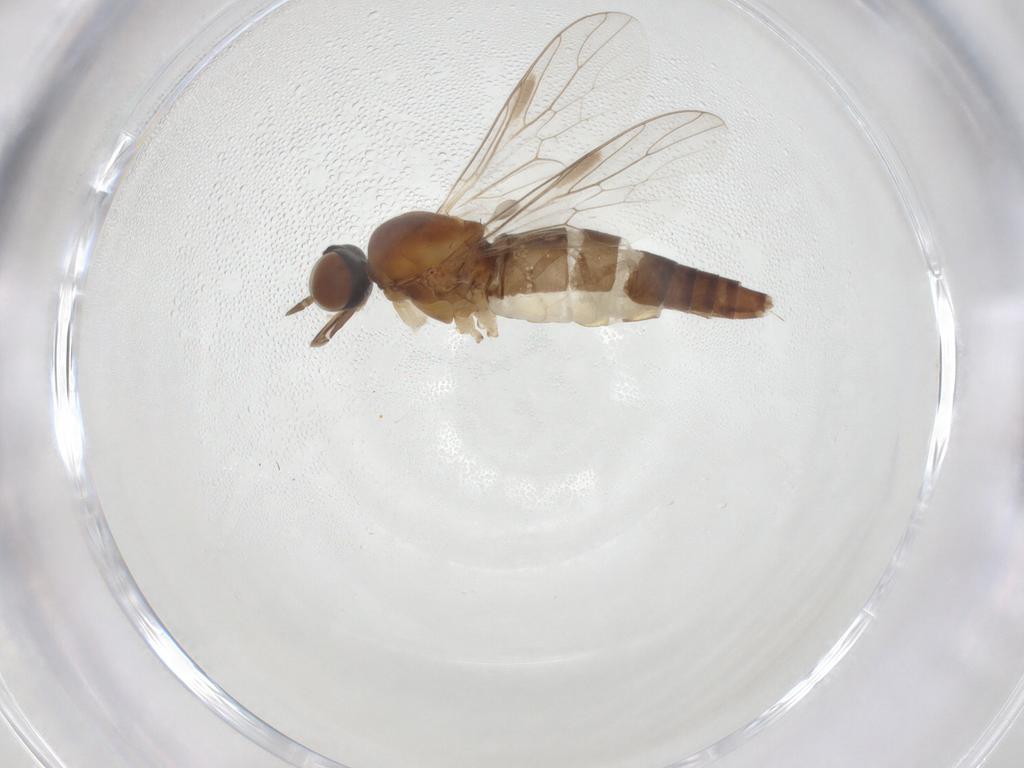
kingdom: Animalia
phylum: Arthropoda
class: Insecta
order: Diptera
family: Scenopinidae
